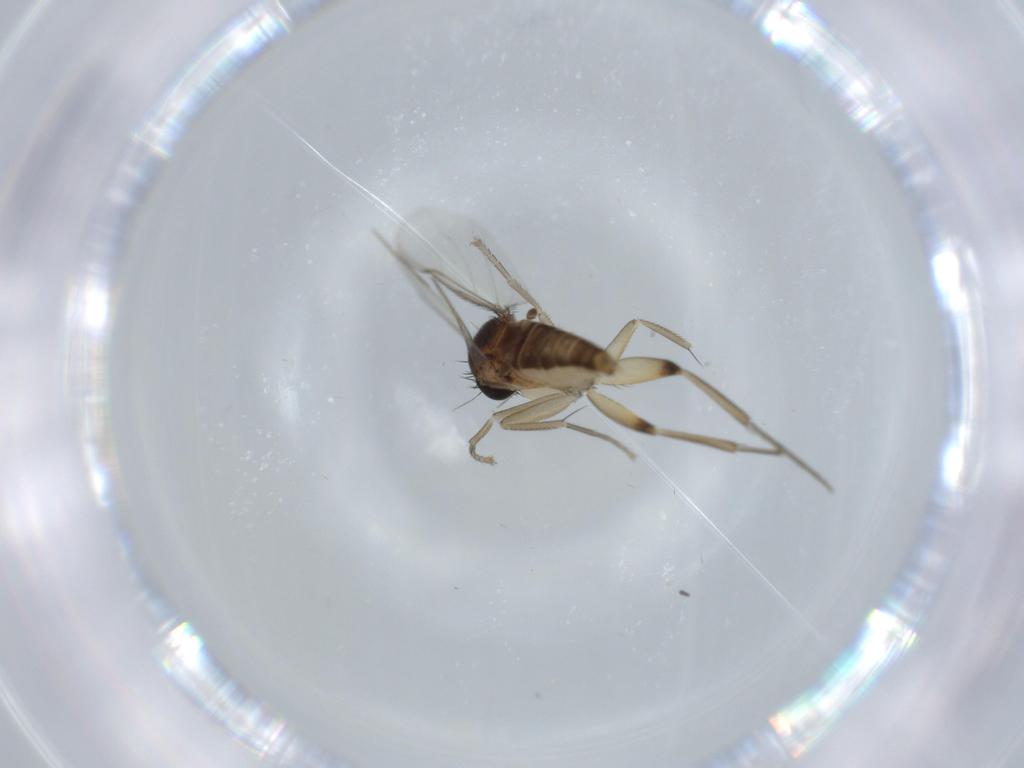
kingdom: Animalia
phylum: Arthropoda
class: Insecta
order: Diptera
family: Phoridae
